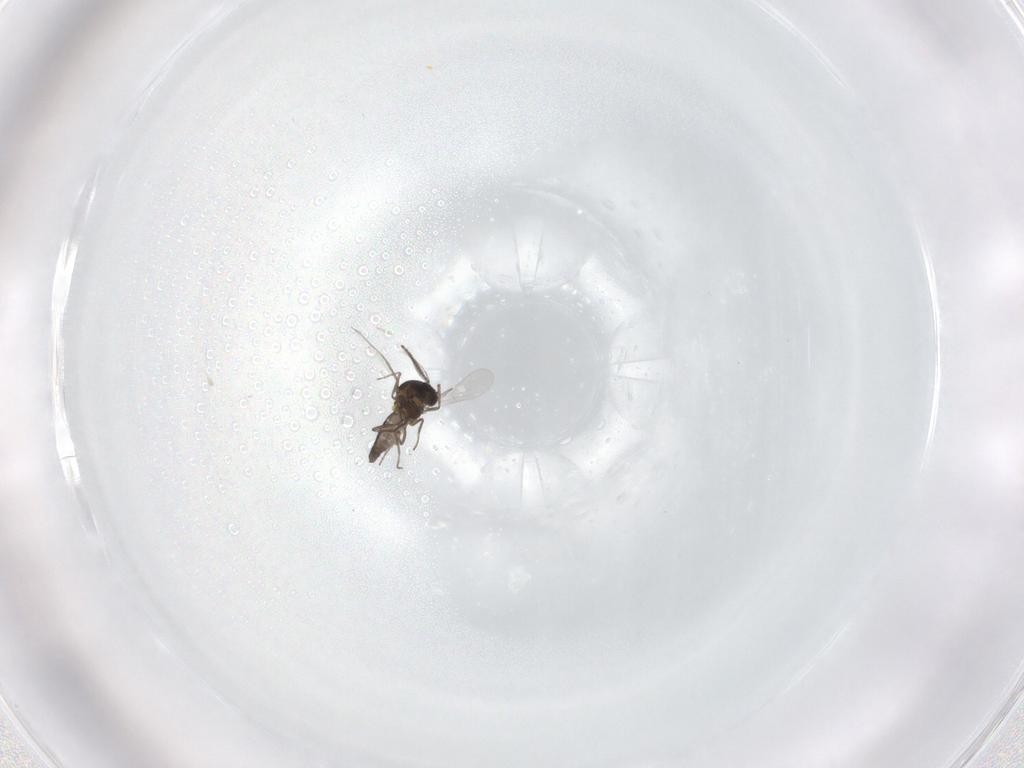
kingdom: Animalia
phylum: Arthropoda
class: Insecta
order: Diptera
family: Ceratopogonidae
